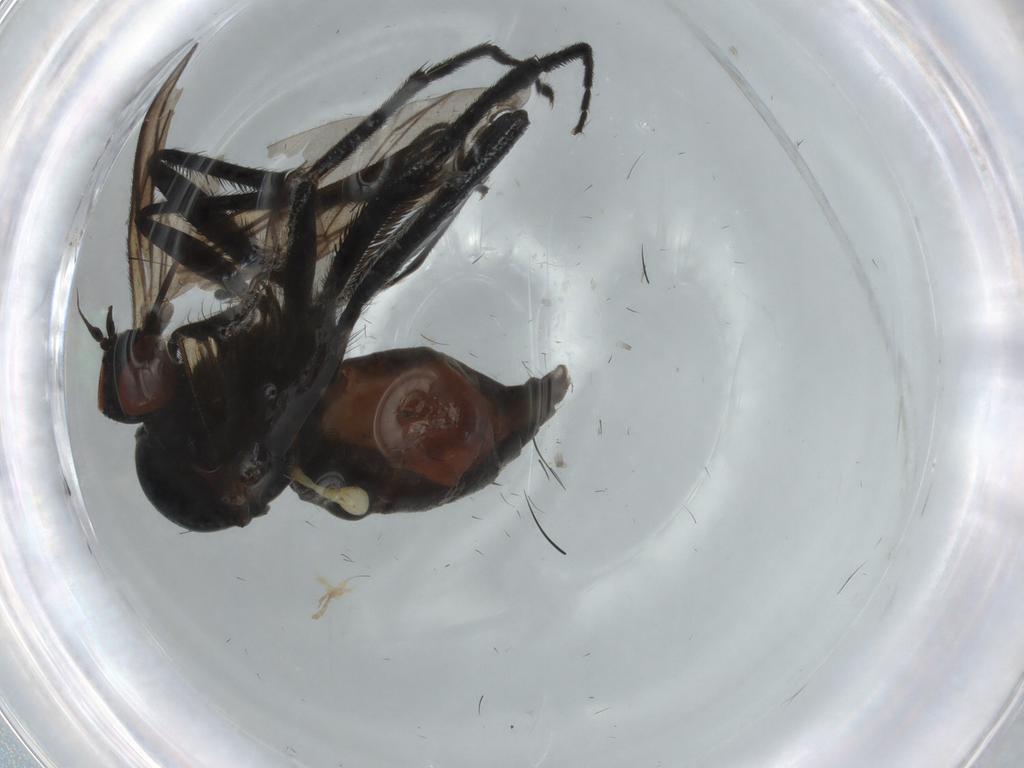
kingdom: Animalia
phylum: Arthropoda
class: Insecta
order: Diptera
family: Empididae
